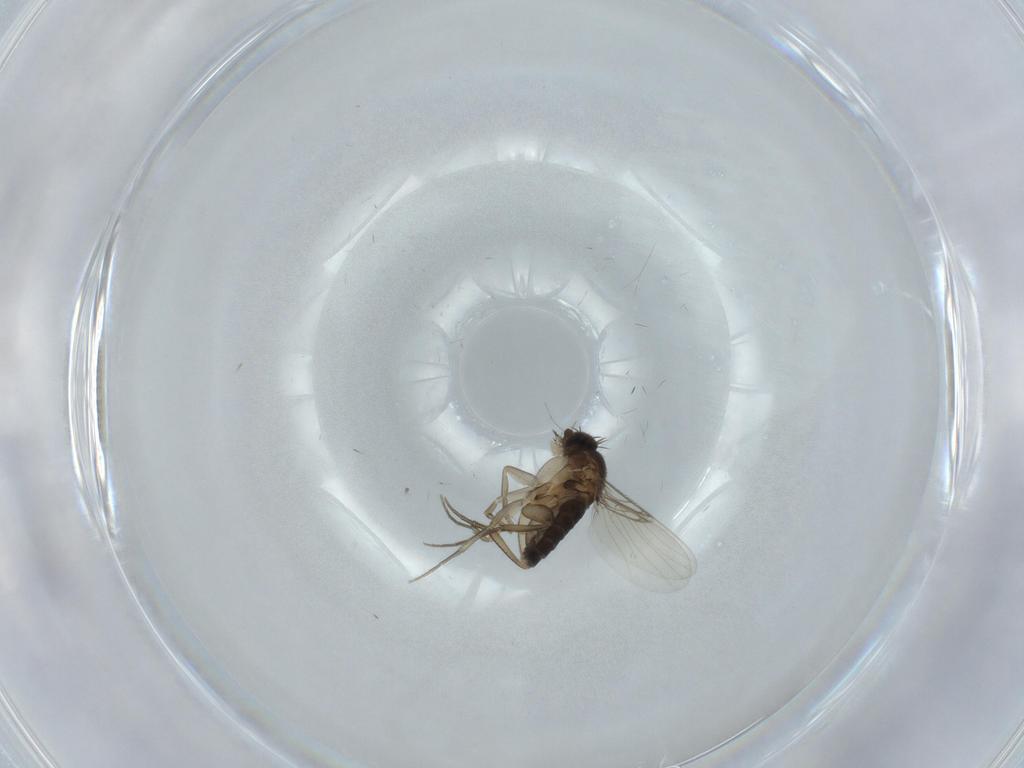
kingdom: Animalia
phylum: Arthropoda
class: Insecta
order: Diptera
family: Phoridae
